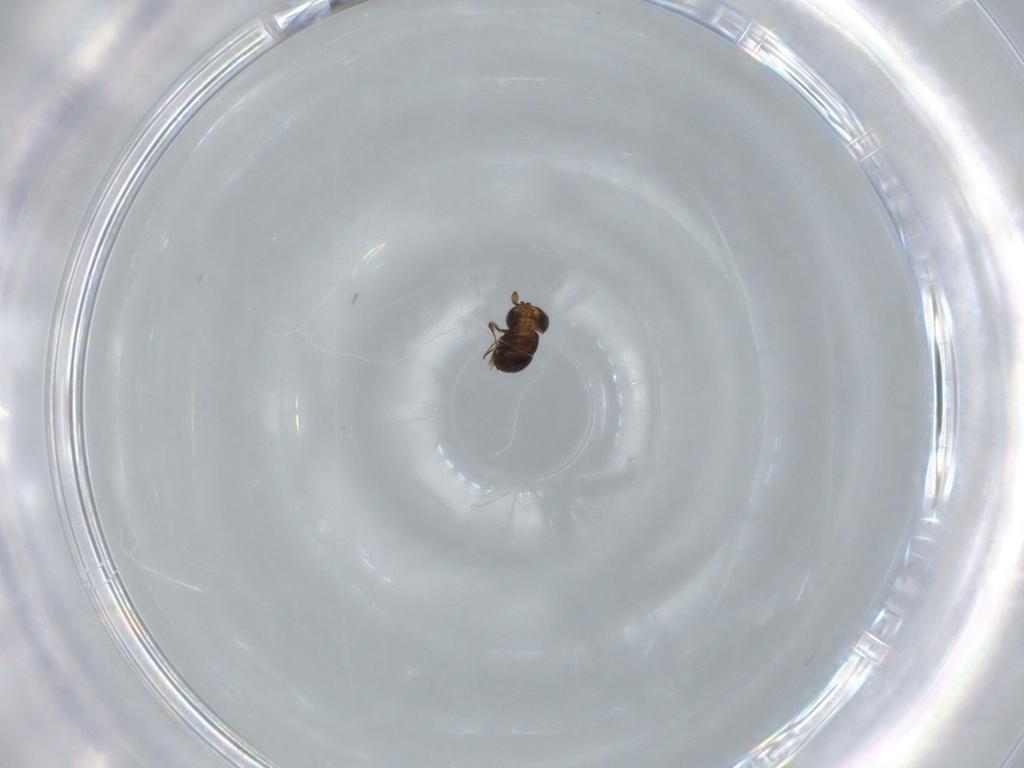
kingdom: Animalia
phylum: Arthropoda
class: Insecta
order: Hymenoptera
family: Scelionidae
